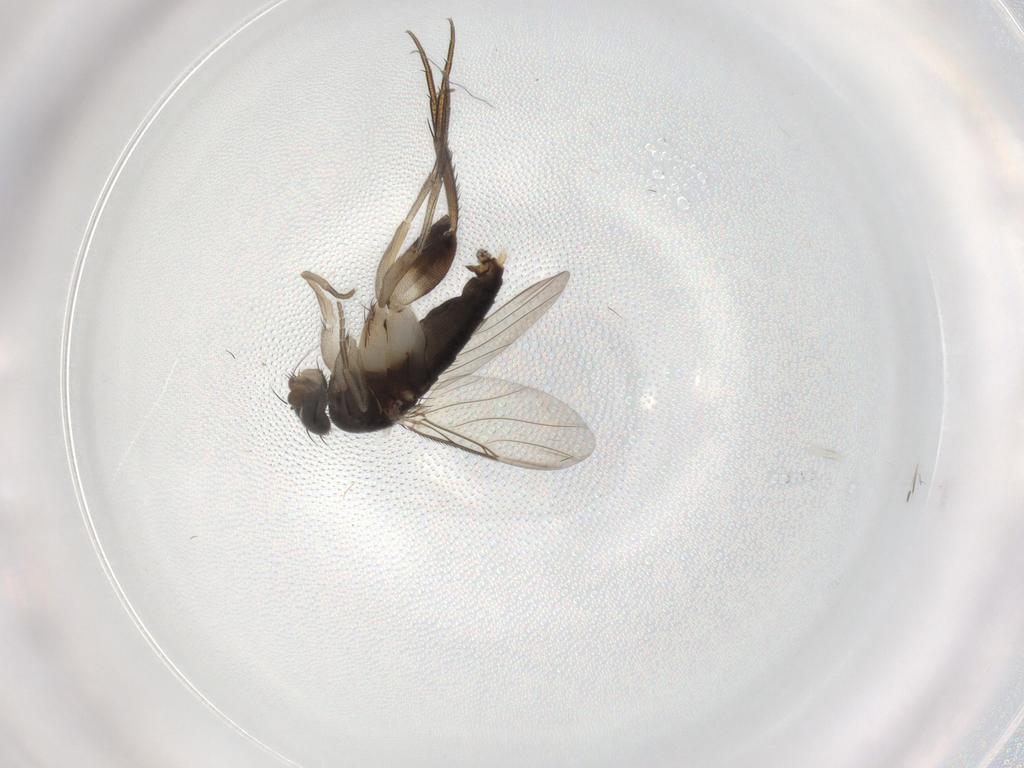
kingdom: Animalia
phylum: Arthropoda
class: Insecta
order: Diptera
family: Phoridae
